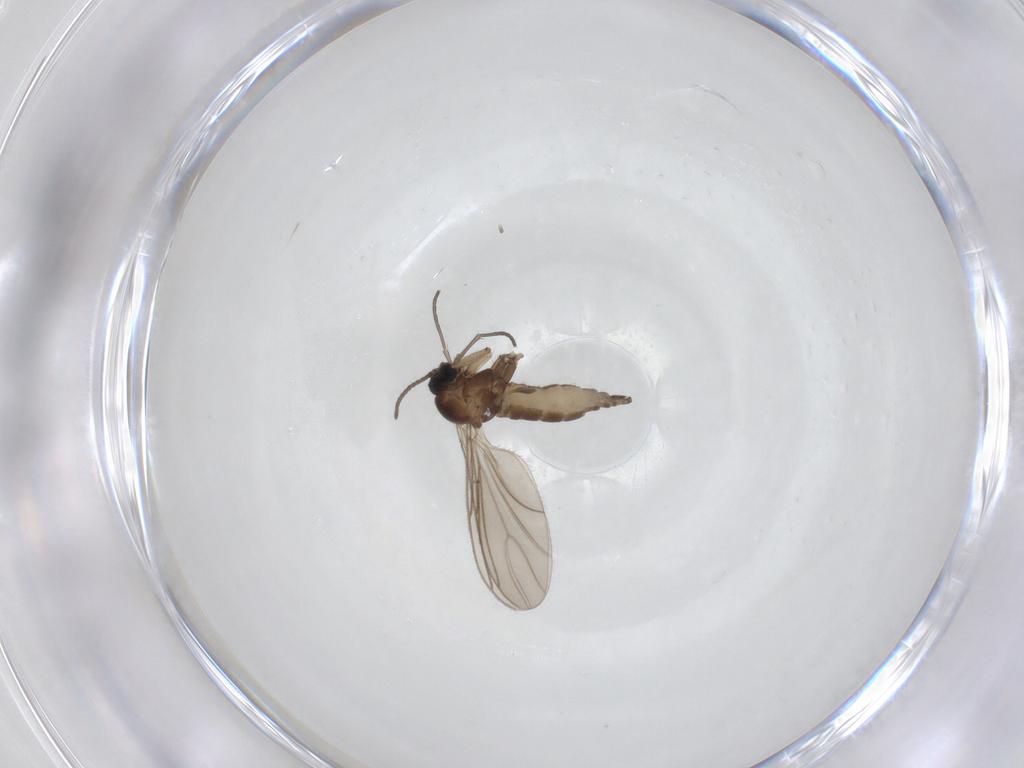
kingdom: Animalia
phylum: Arthropoda
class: Insecta
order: Diptera
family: Sciaridae
